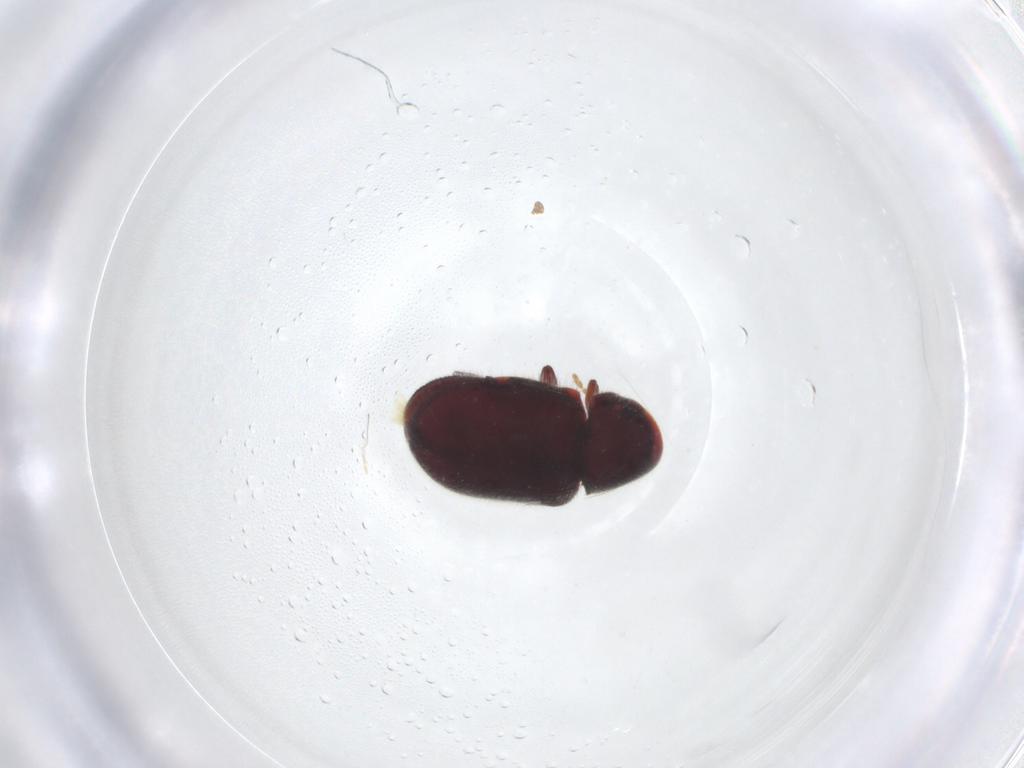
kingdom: Animalia
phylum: Arthropoda
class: Insecta
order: Coleoptera
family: Ptinidae
